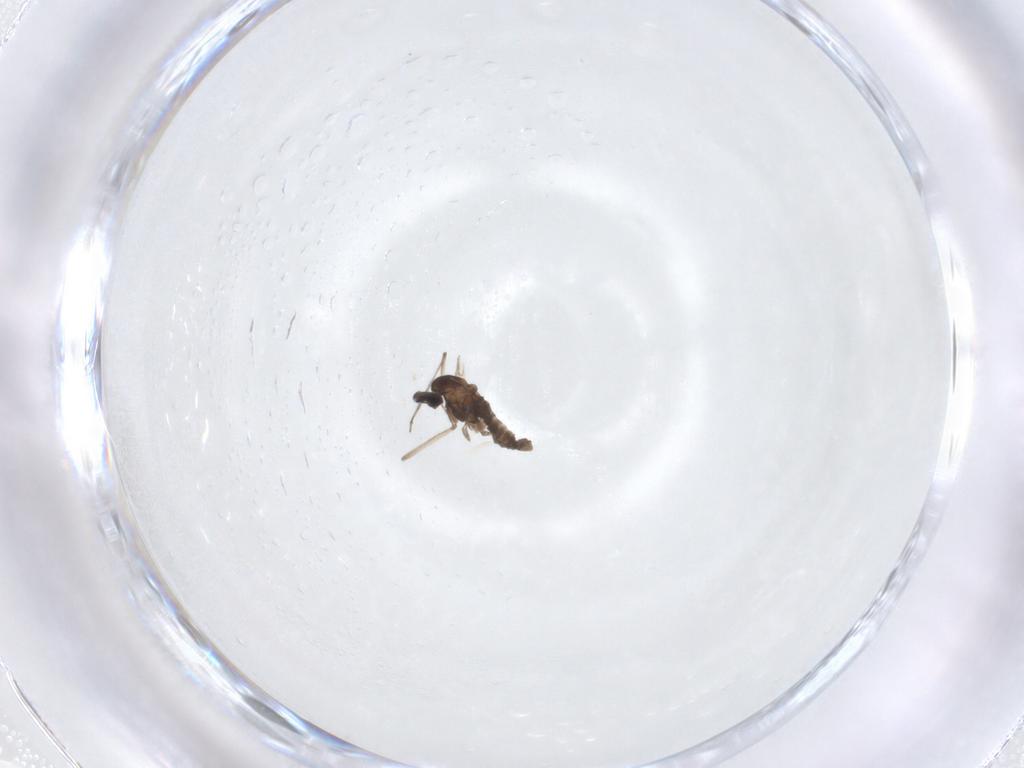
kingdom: Animalia
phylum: Arthropoda
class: Insecta
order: Diptera
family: Cecidomyiidae
